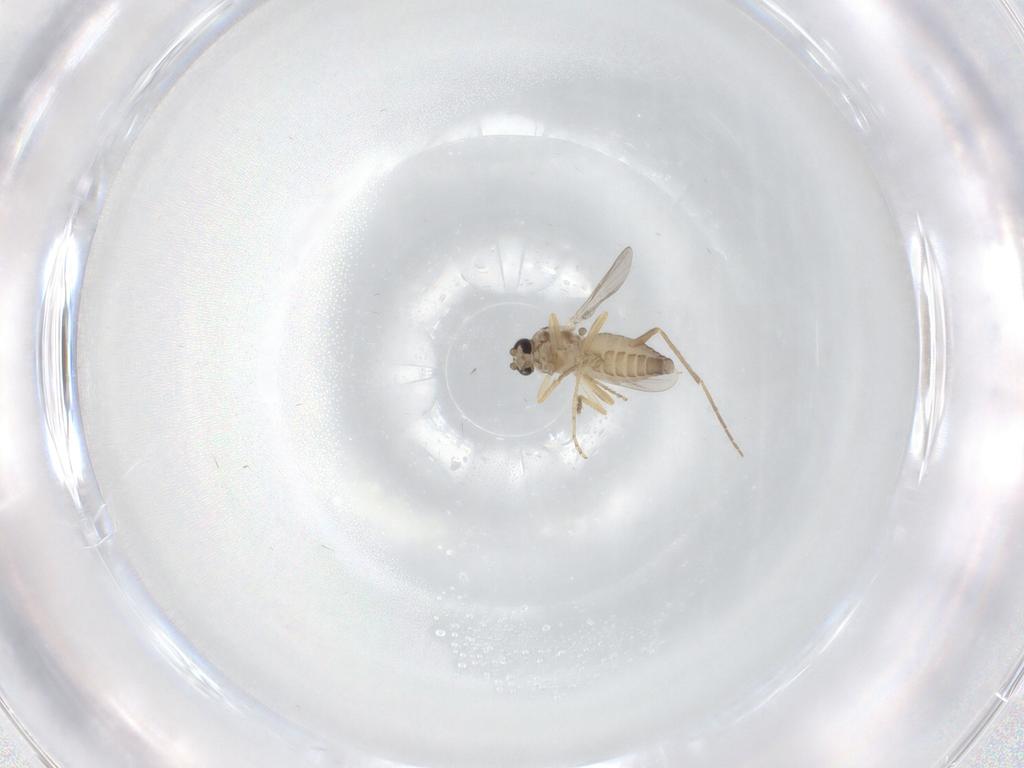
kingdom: Animalia
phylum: Arthropoda
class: Insecta
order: Diptera
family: Ceratopogonidae
